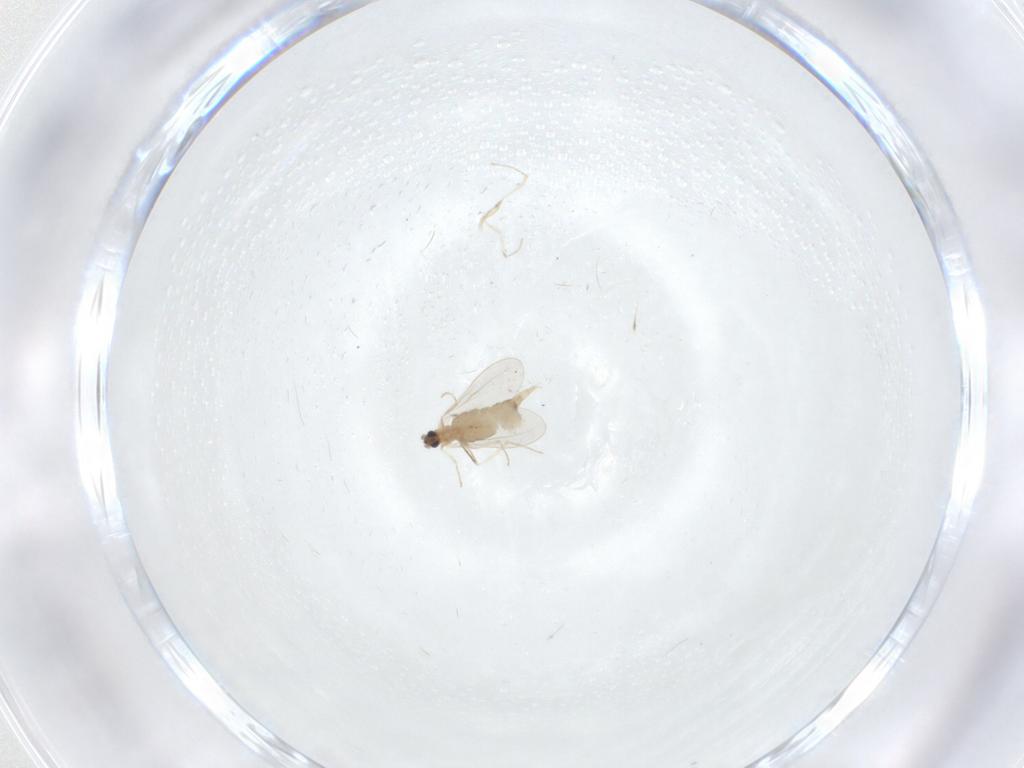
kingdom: Animalia
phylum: Arthropoda
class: Insecta
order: Diptera
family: Cecidomyiidae
